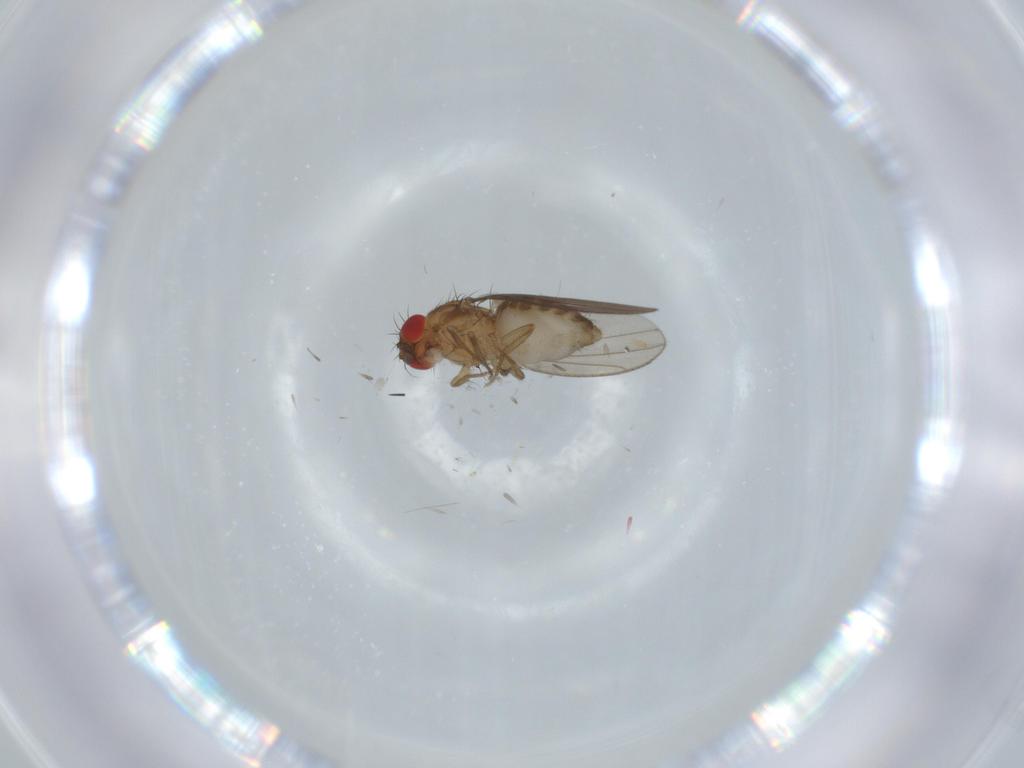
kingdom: Animalia
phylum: Arthropoda
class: Insecta
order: Diptera
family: Drosophilidae
